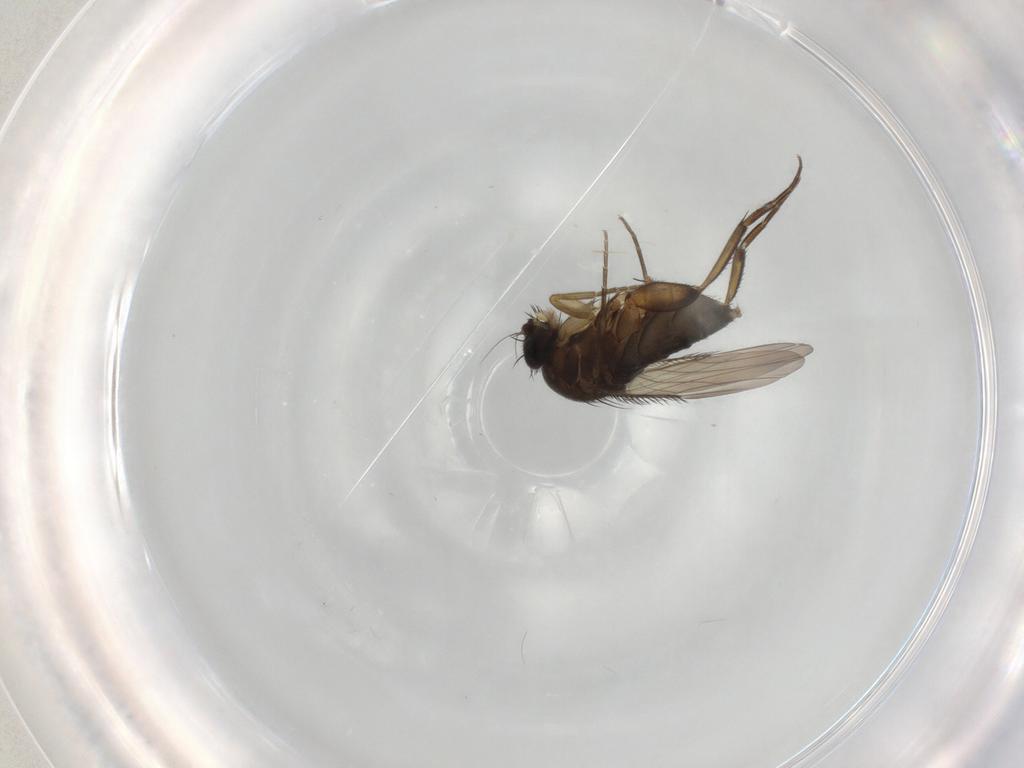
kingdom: Animalia
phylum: Arthropoda
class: Insecta
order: Diptera
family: Phoridae
